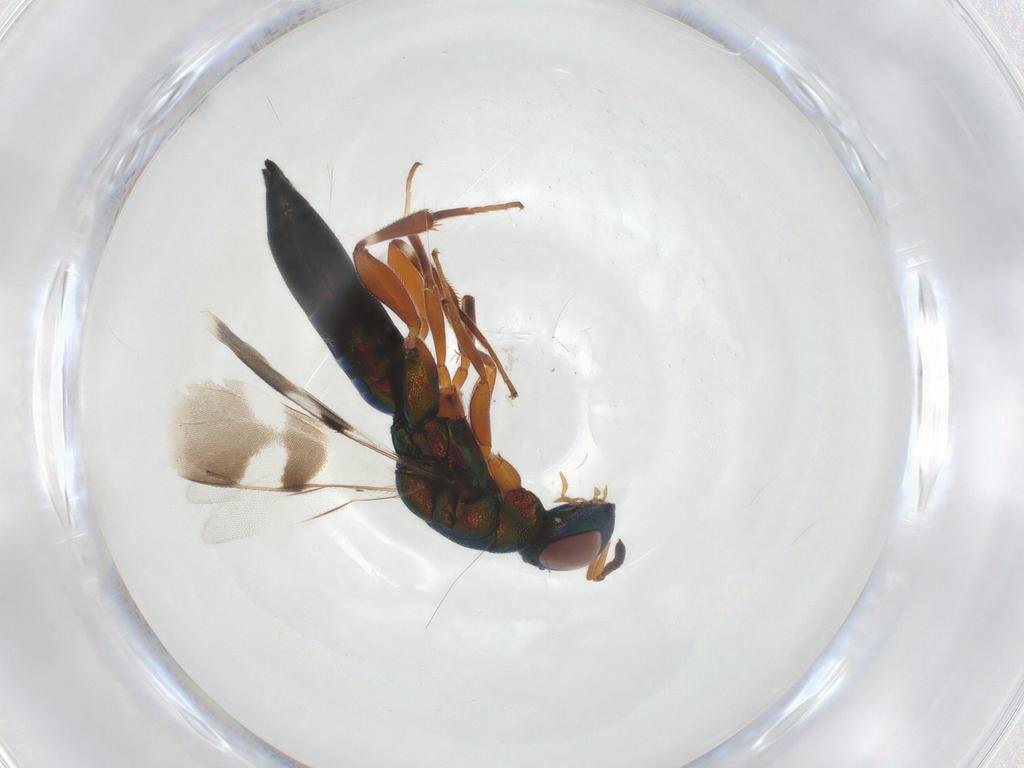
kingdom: Animalia
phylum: Arthropoda
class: Insecta
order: Hymenoptera
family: Cleonyminae
